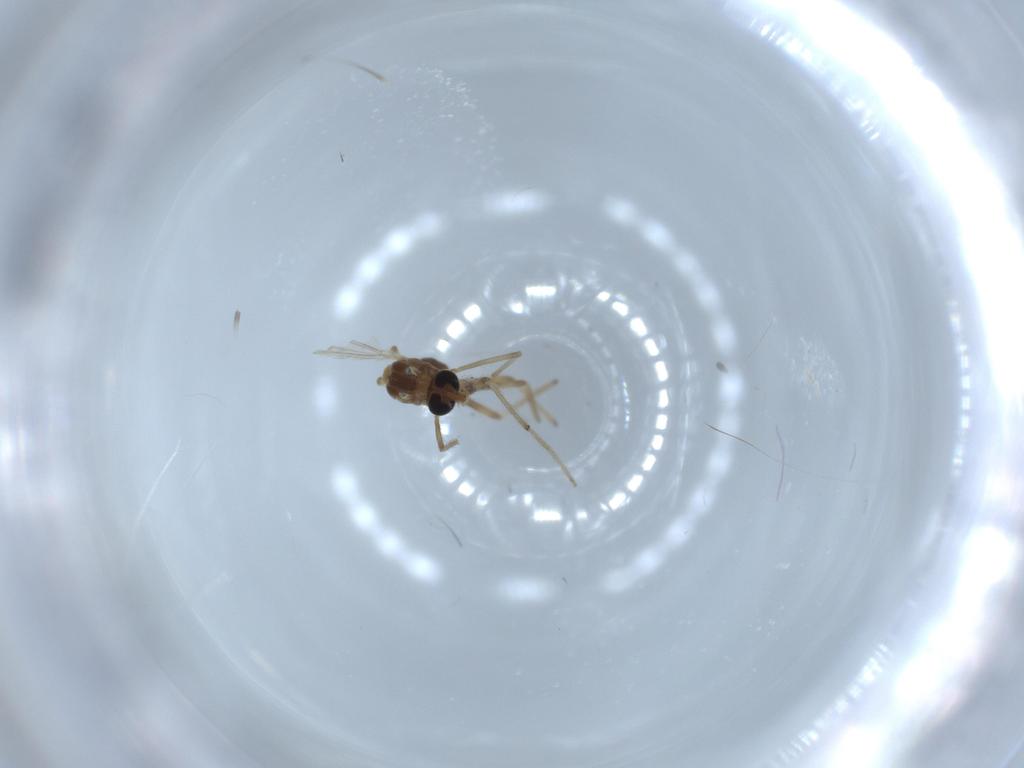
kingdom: Animalia
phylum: Arthropoda
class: Insecta
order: Diptera
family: Chironomidae
